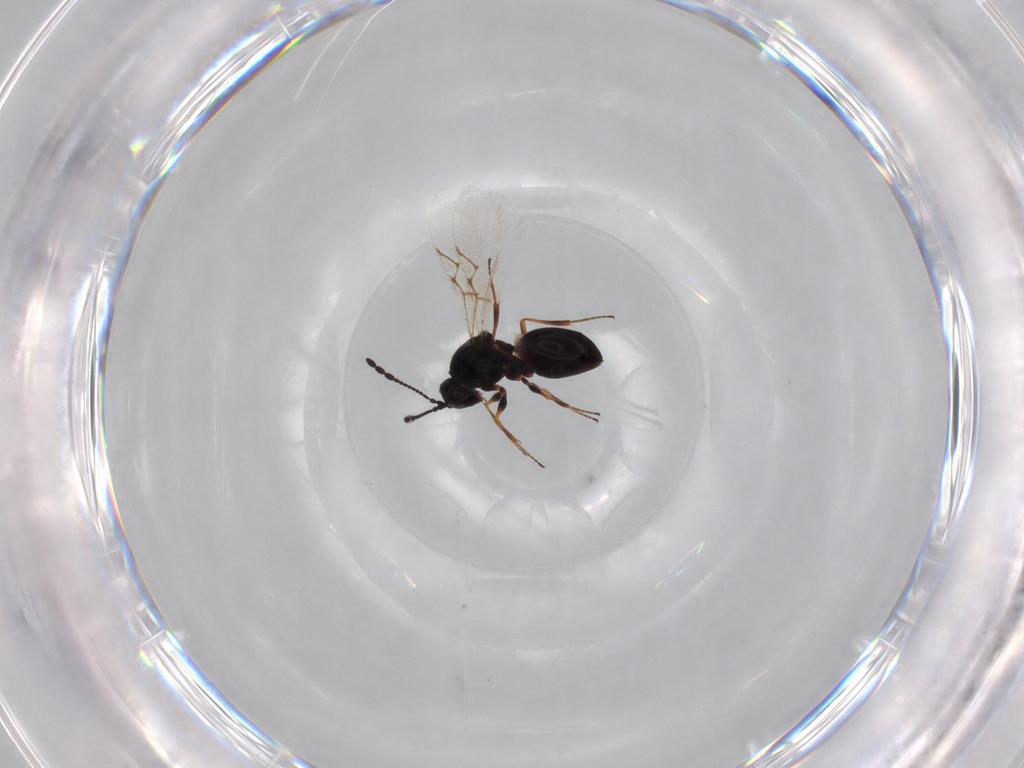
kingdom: Animalia
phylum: Arthropoda
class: Insecta
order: Hymenoptera
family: Figitidae
